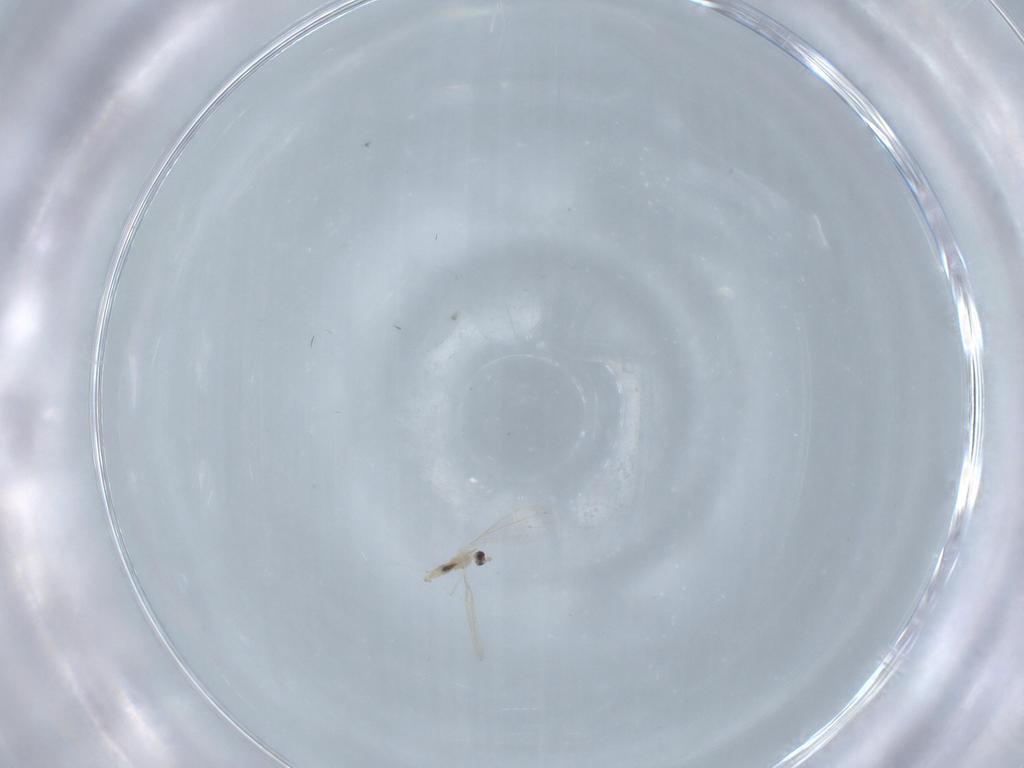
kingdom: Animalia
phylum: Arthropoda
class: Insecta
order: Diptera
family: Cecidomyiidae
